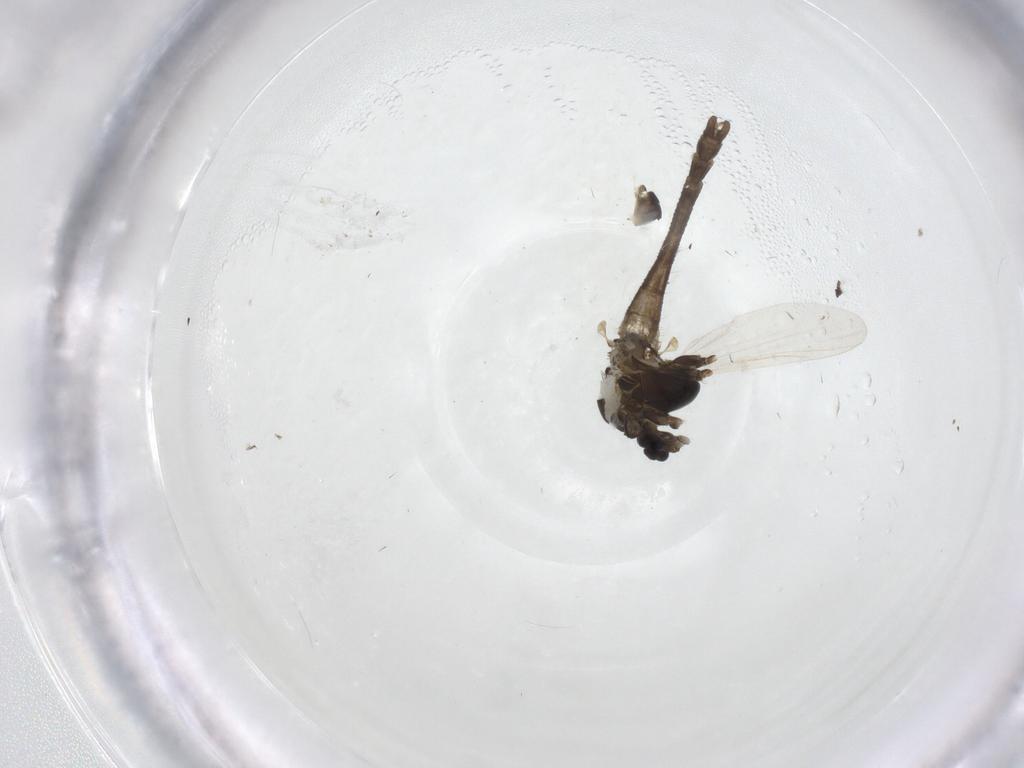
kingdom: Animalia
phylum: Arthropoda
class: Insecta
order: Diptera
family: Chironomidae
